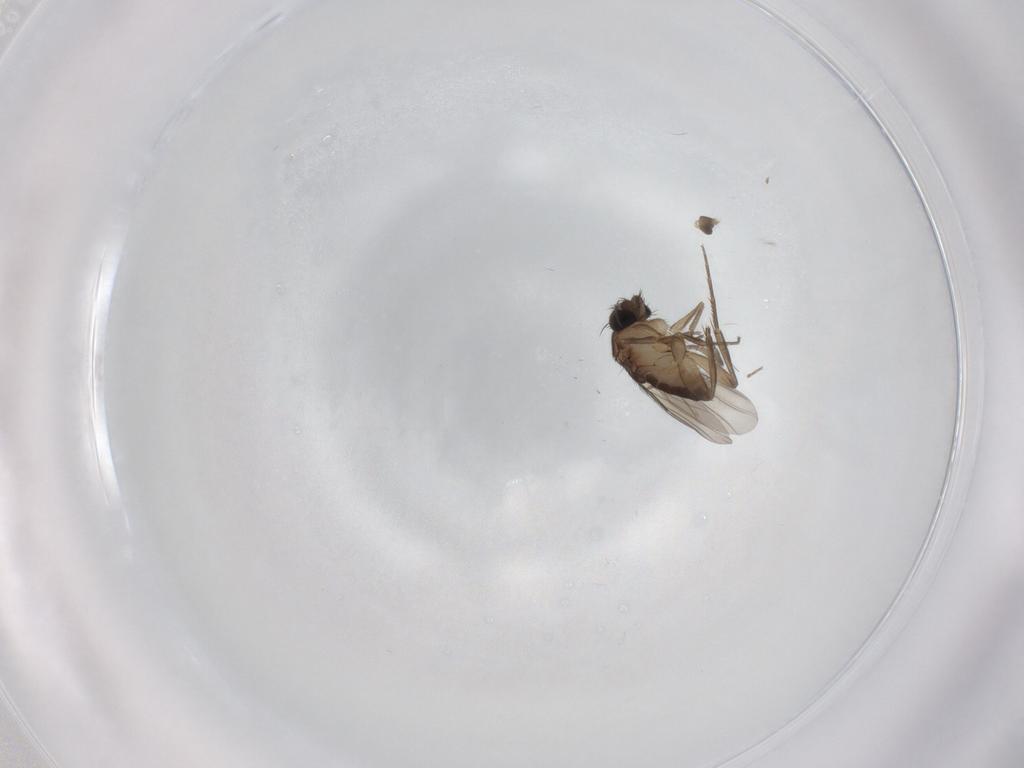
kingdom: Animalia
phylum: Arthropoda
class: Insecta
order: Diptera
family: Phoridae
